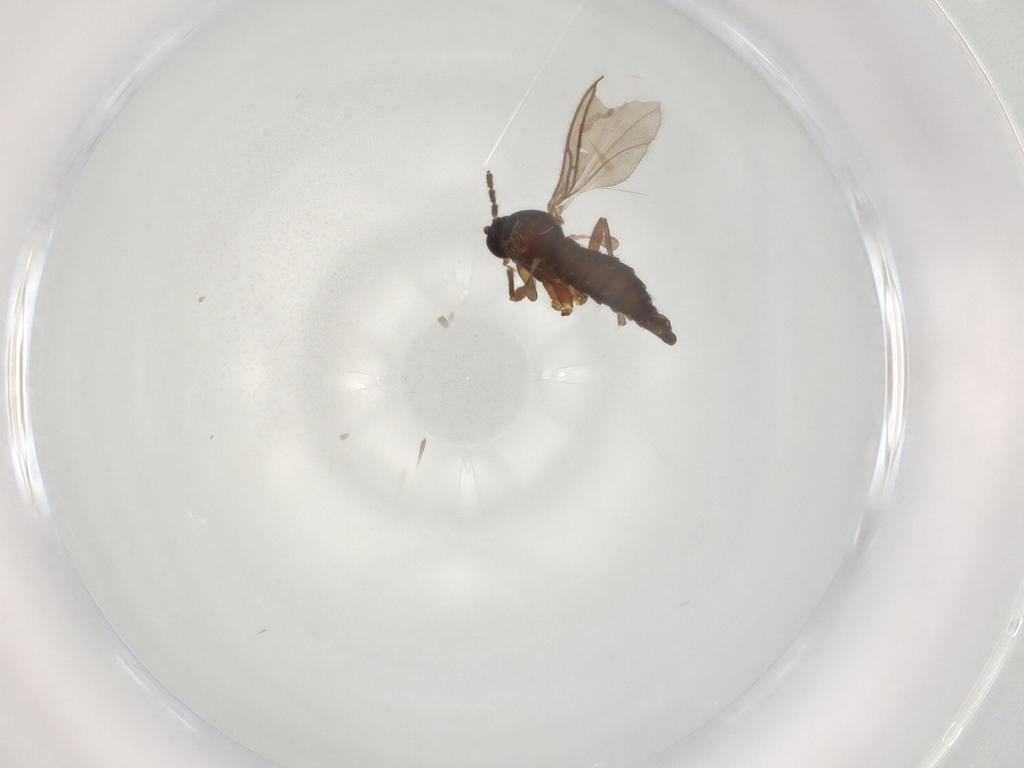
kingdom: Animalia
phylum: Arthropoda
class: Insecta
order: Diptera
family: Sciaridae
